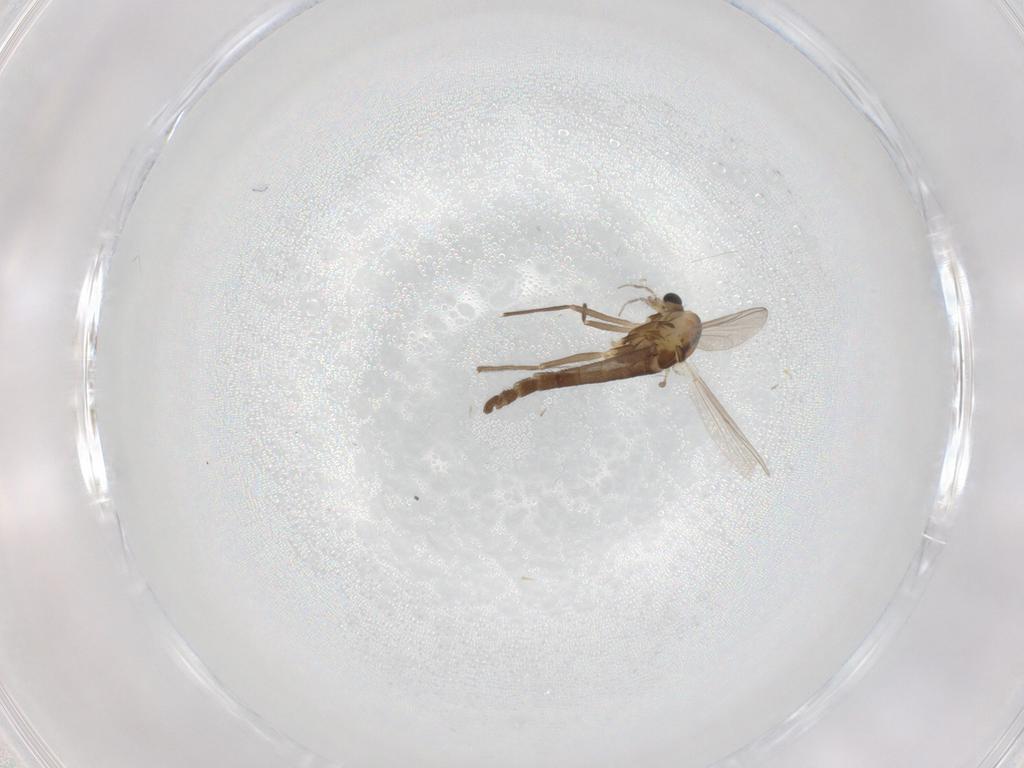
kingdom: Animalia
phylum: Arthropoda
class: Insecta
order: Diptera
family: Chironomidae
